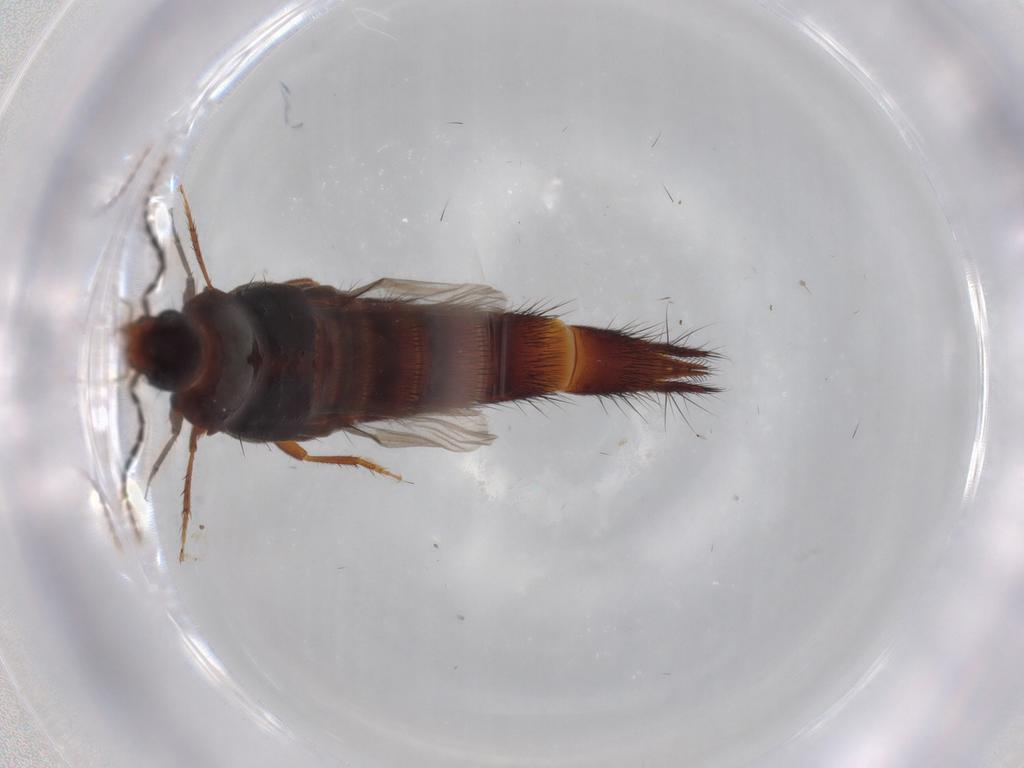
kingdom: Animalia
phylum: Arthropoda
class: Insecta
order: Coleoptera
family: Staphylinidae
